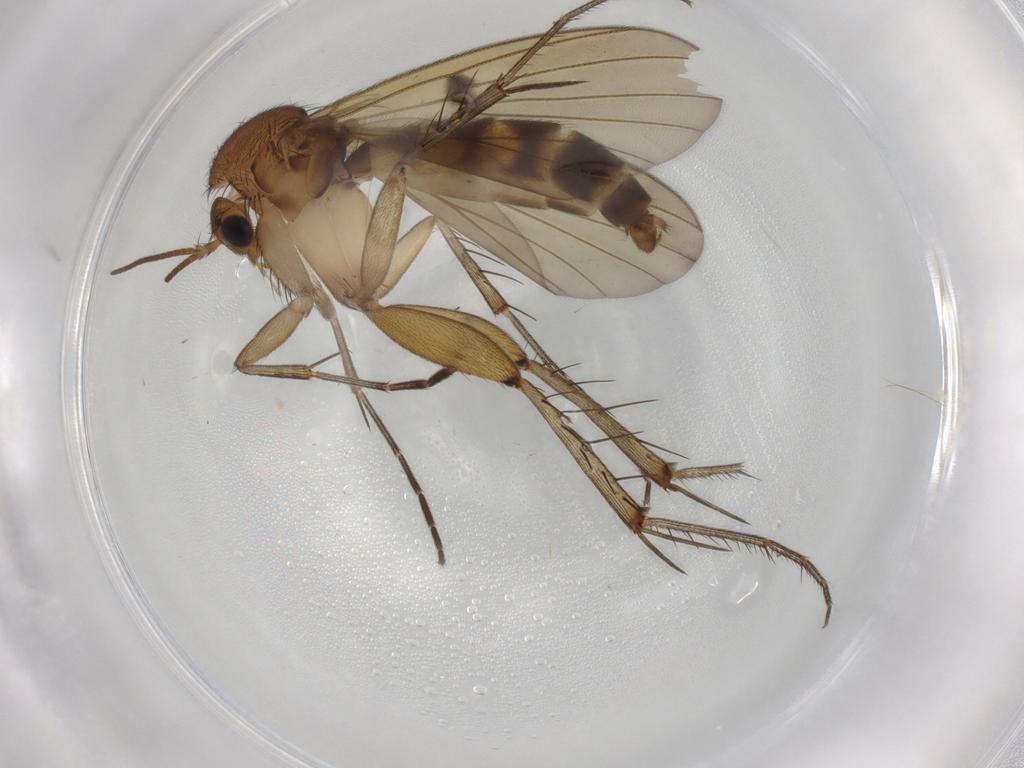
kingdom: Animalia
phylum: Arthropoda
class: Insecta
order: Diptera
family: Mycetophilidae
